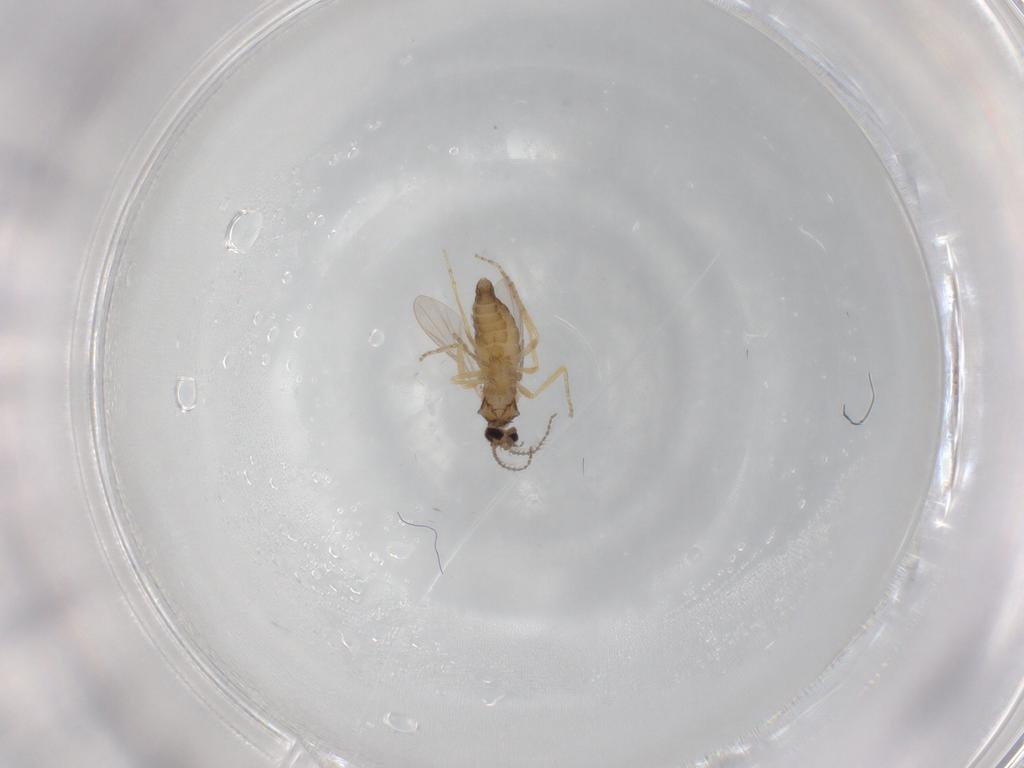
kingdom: Animalia
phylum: Arthropoda
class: Insecta
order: Diptera
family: Ceratopogonidae
